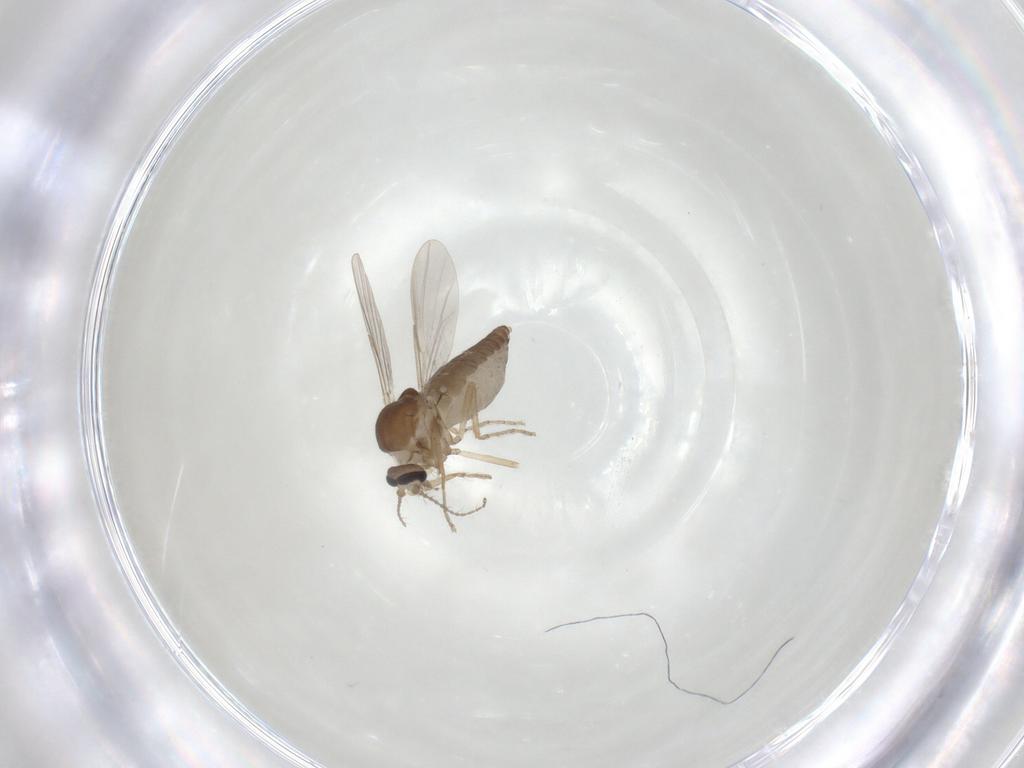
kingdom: Animalia
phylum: Arthropoda
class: Insecta
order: Diptera
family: Ceratopogonidae
